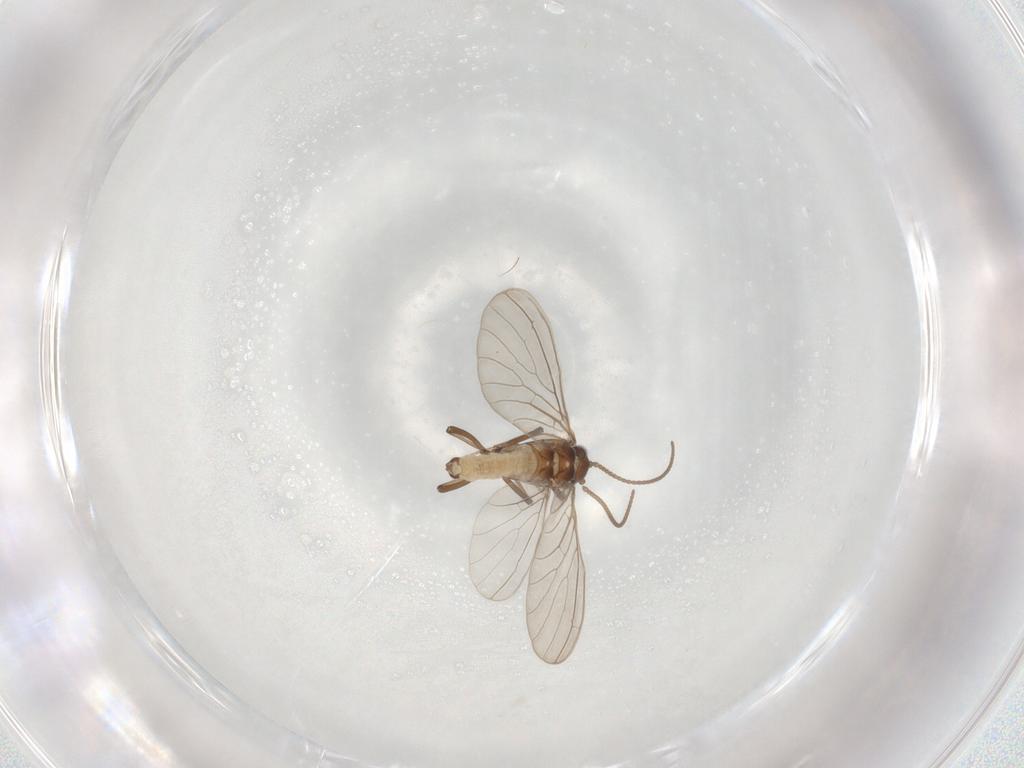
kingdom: Animalia
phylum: Arthropoda
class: Insecta
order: Neuroptera
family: Coniopterygidae
